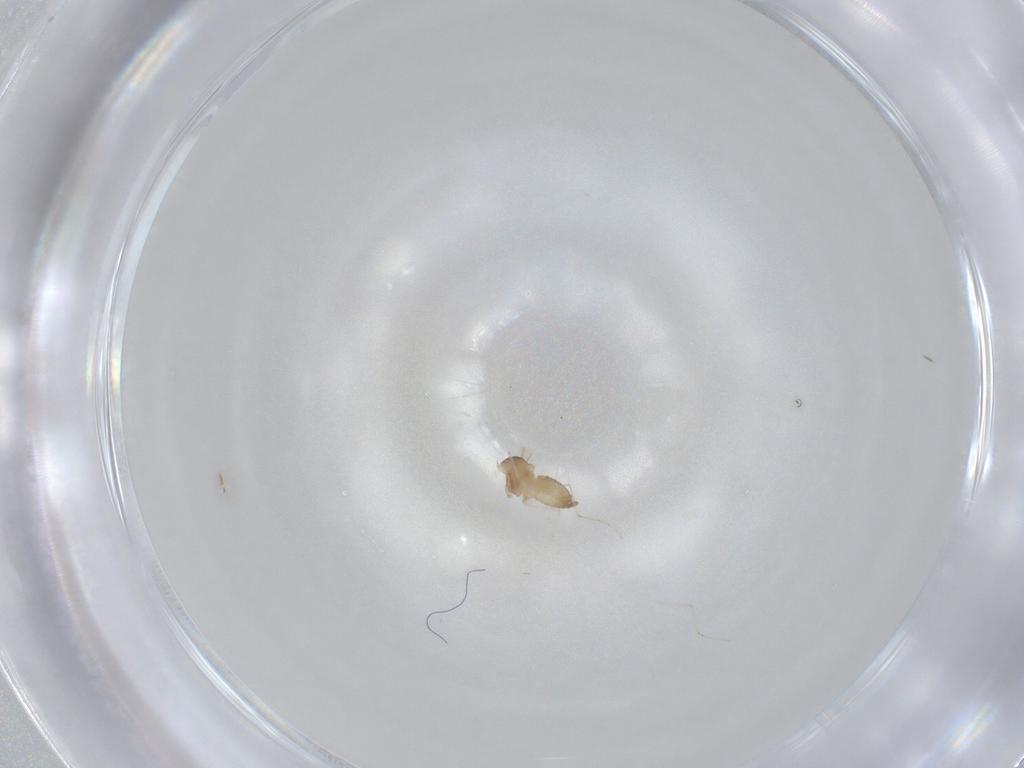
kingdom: Animalia
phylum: Arthropoda
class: Insecta
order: Diptera
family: Cecidomyiidae
